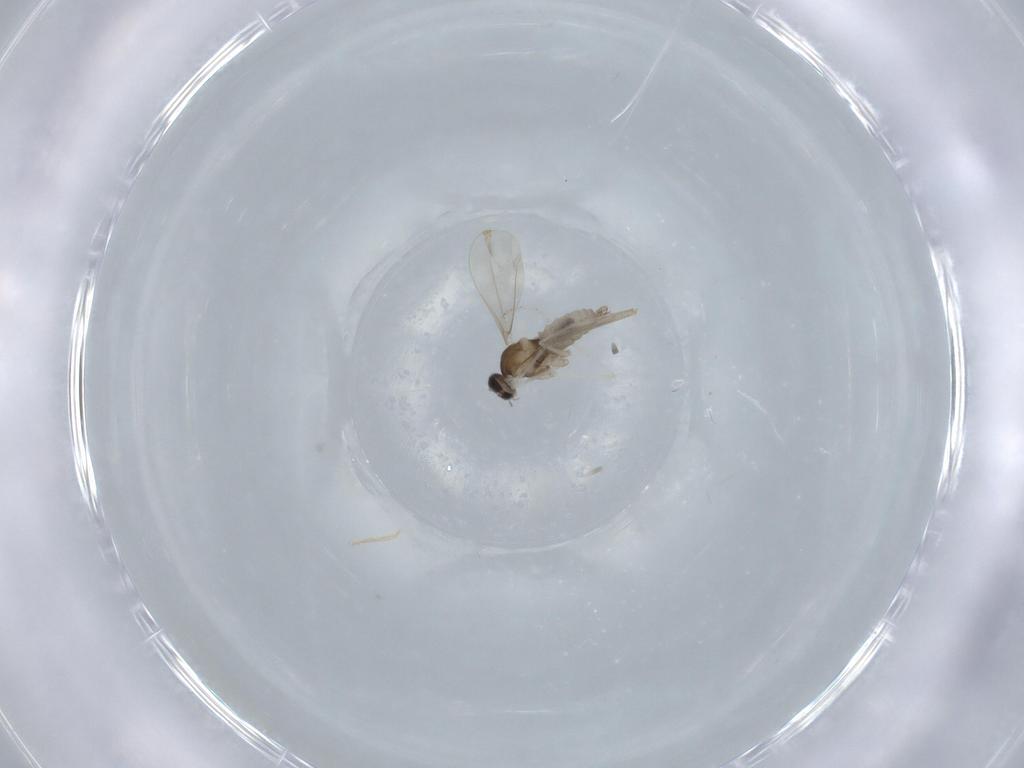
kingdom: Animalia
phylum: Arthropoda
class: Insecta
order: Diptera
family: Cecidomyiidae
